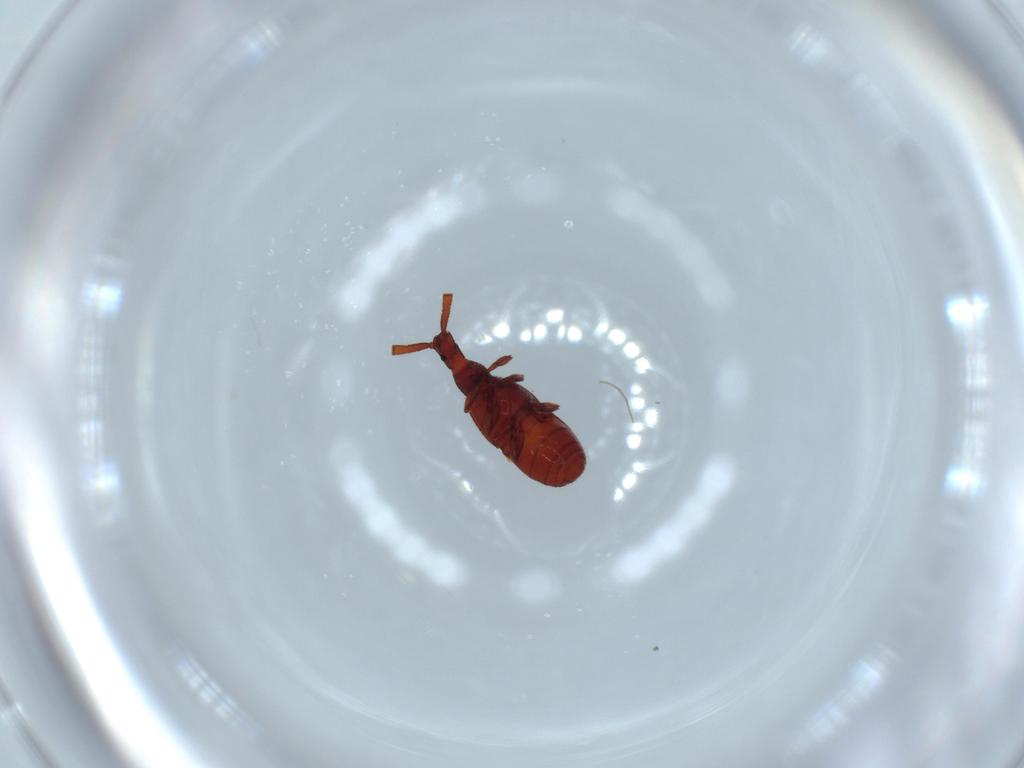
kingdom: Animalia
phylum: Arthropoda
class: Insecta
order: Coleoptera
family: Staphylinidae
